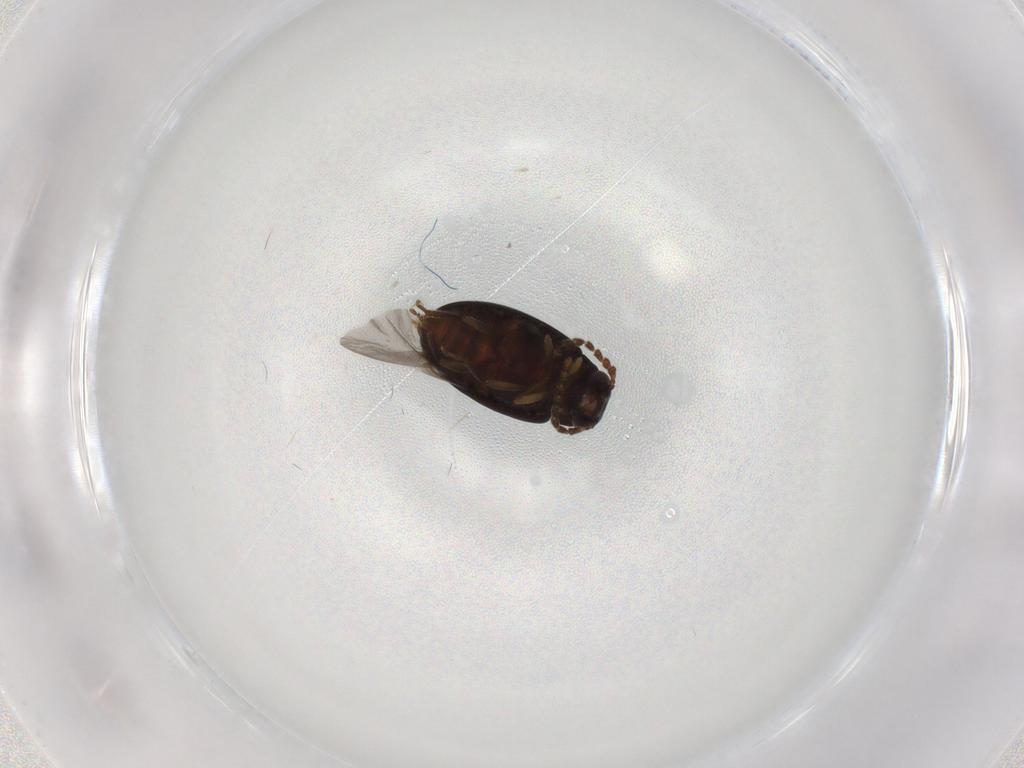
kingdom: Animalia
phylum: Arthropoda
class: Insecta
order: Coleoptera
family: Tenebrionidae
